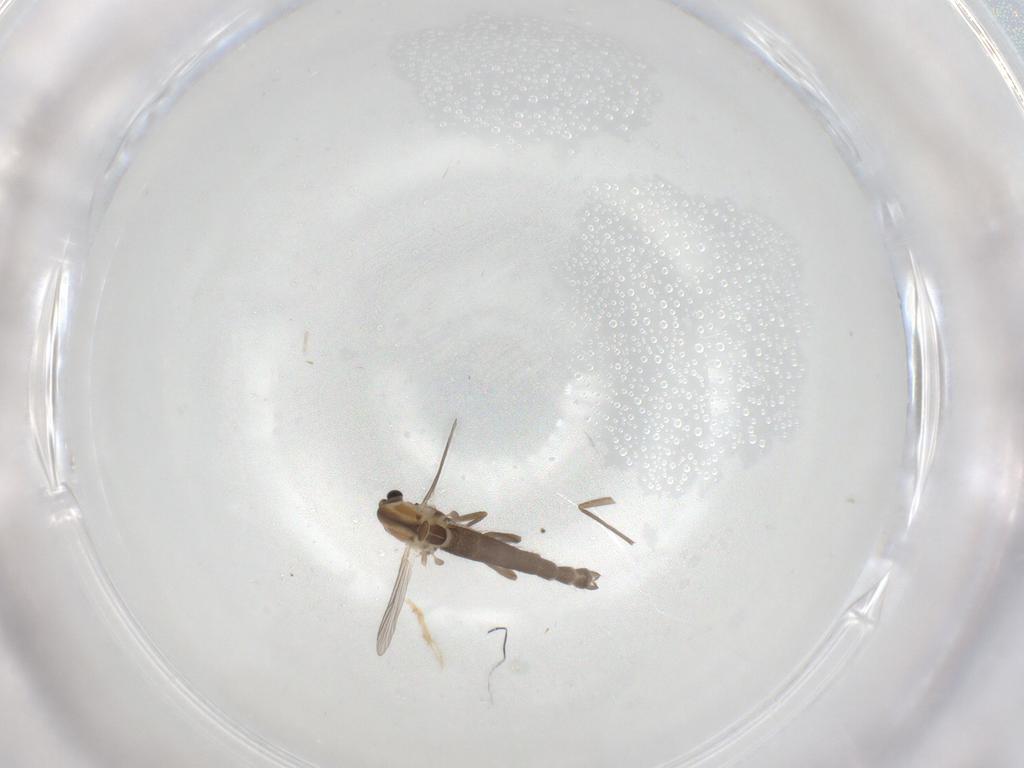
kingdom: Animalia
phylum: Arthropoda
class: Insecta
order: Diptera
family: Chironomidae
